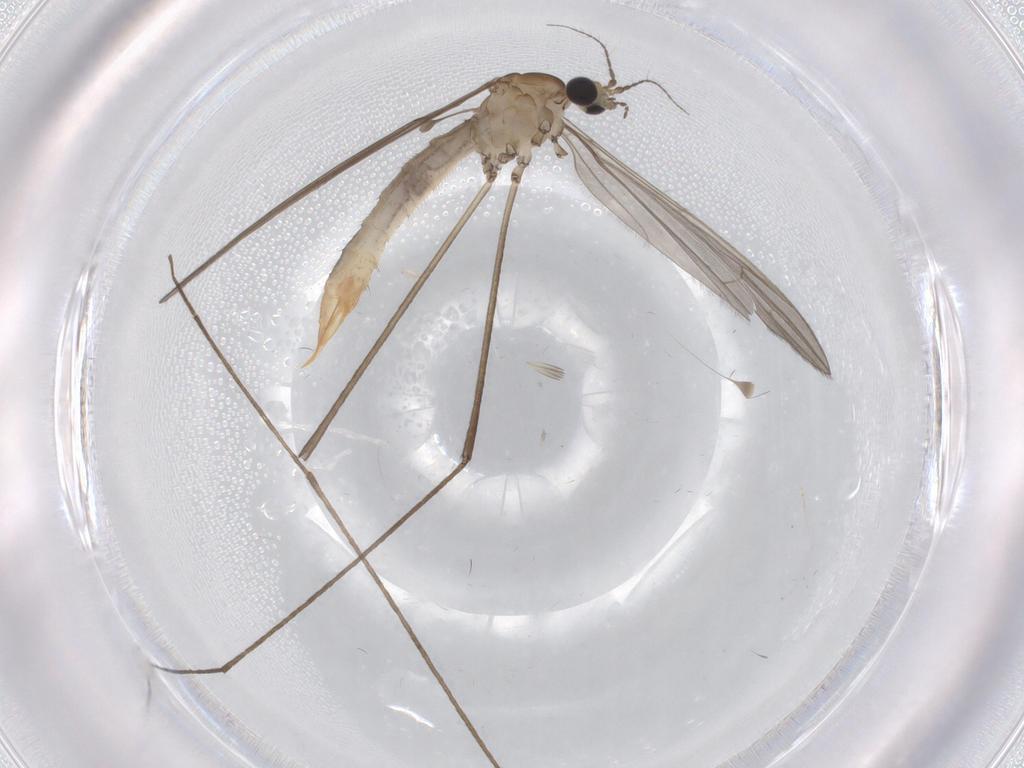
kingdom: Animalia
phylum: Arthropoda
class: Insecta
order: Diptera
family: Limoniidae
